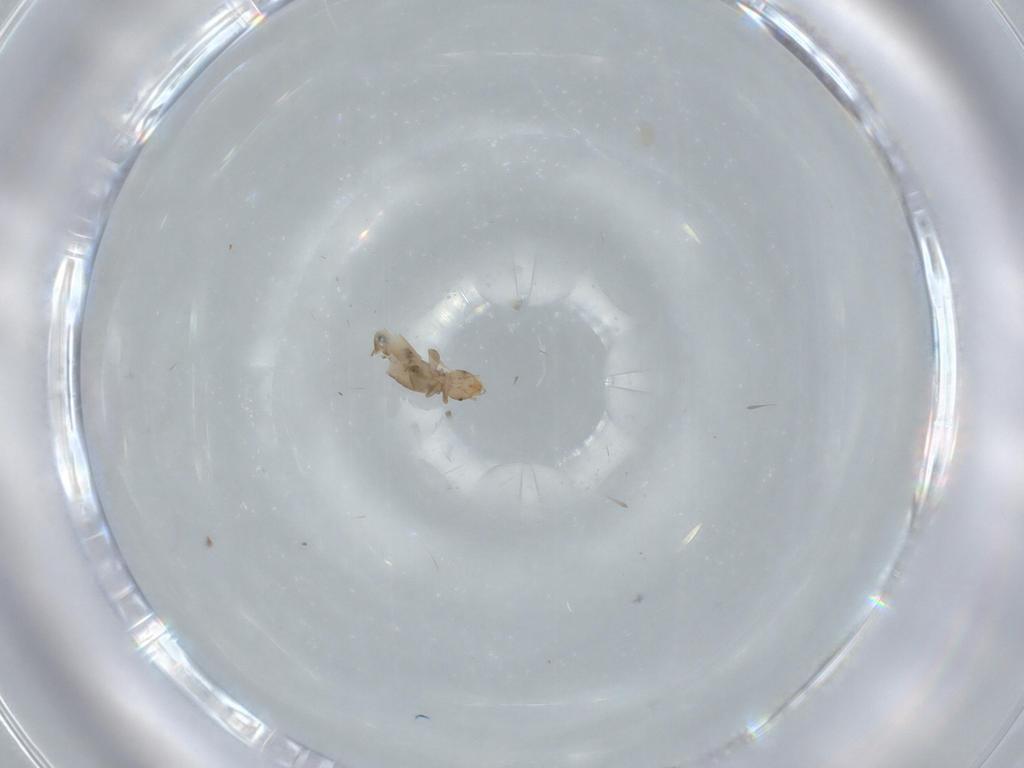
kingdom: Animalia
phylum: Arthropoda
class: Insecta
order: Psocodea
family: Liposcelididae
